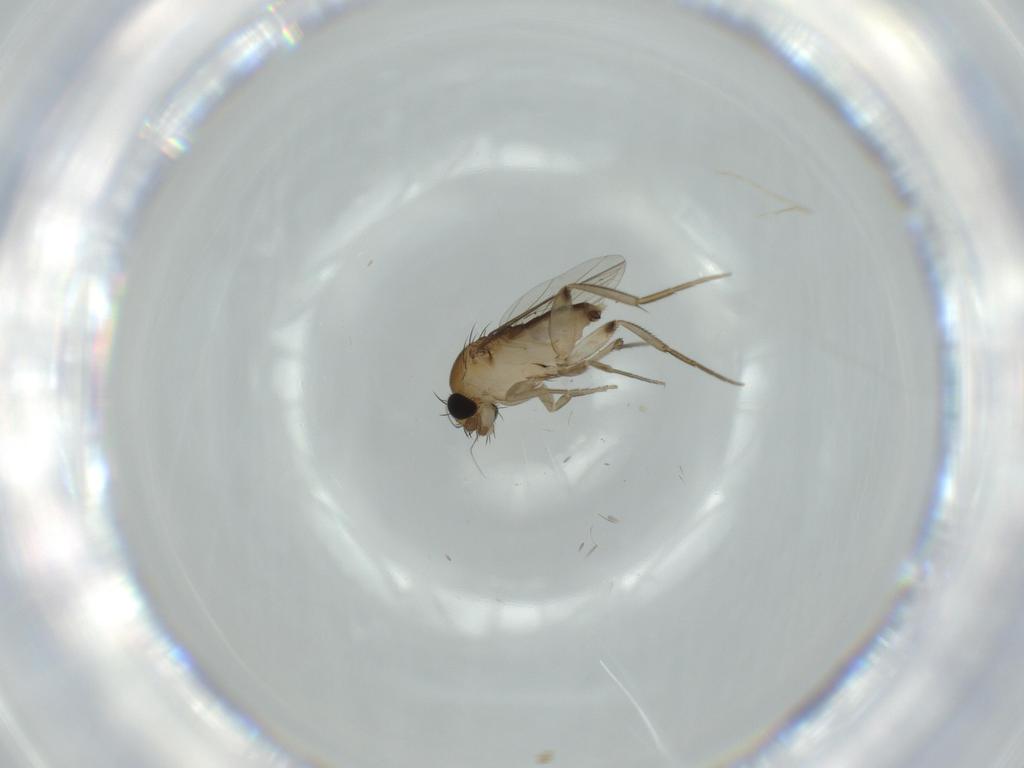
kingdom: Animalia
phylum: Arthropoda
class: Insecta
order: Diptera
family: Phoridae
